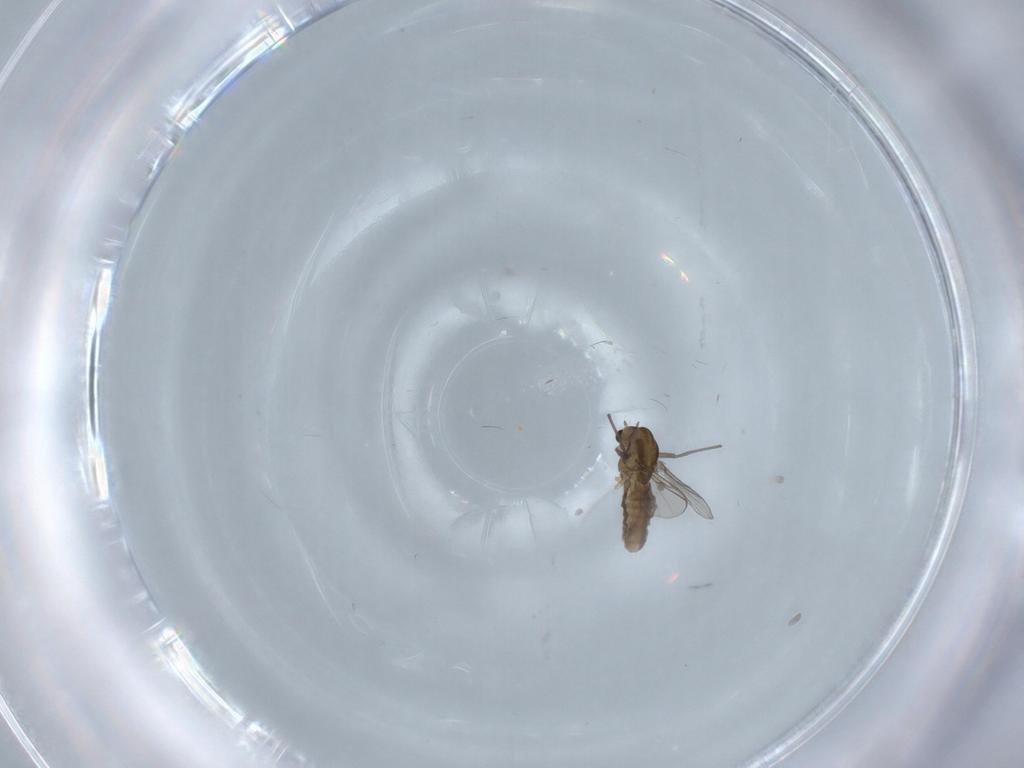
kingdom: Animalia
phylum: Arthropoda
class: Insecta
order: Diptera
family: Chironomidae
